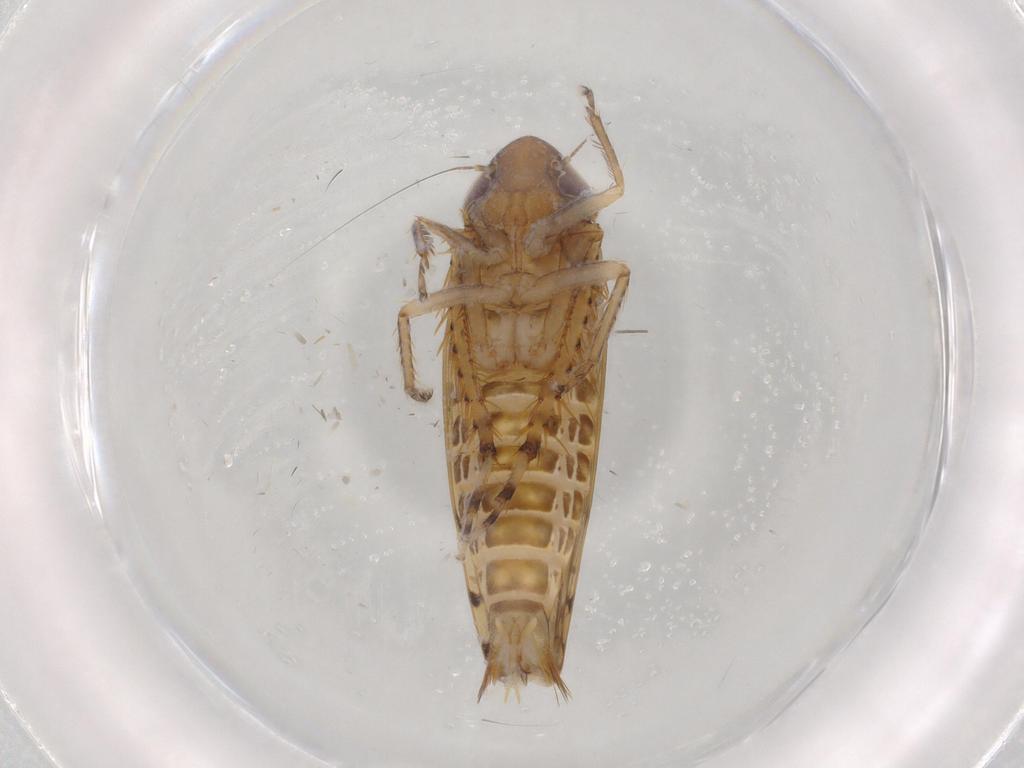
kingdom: Animalia
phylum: Arthropoda
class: Insecta
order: Hemiptera
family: Cicadellidae
